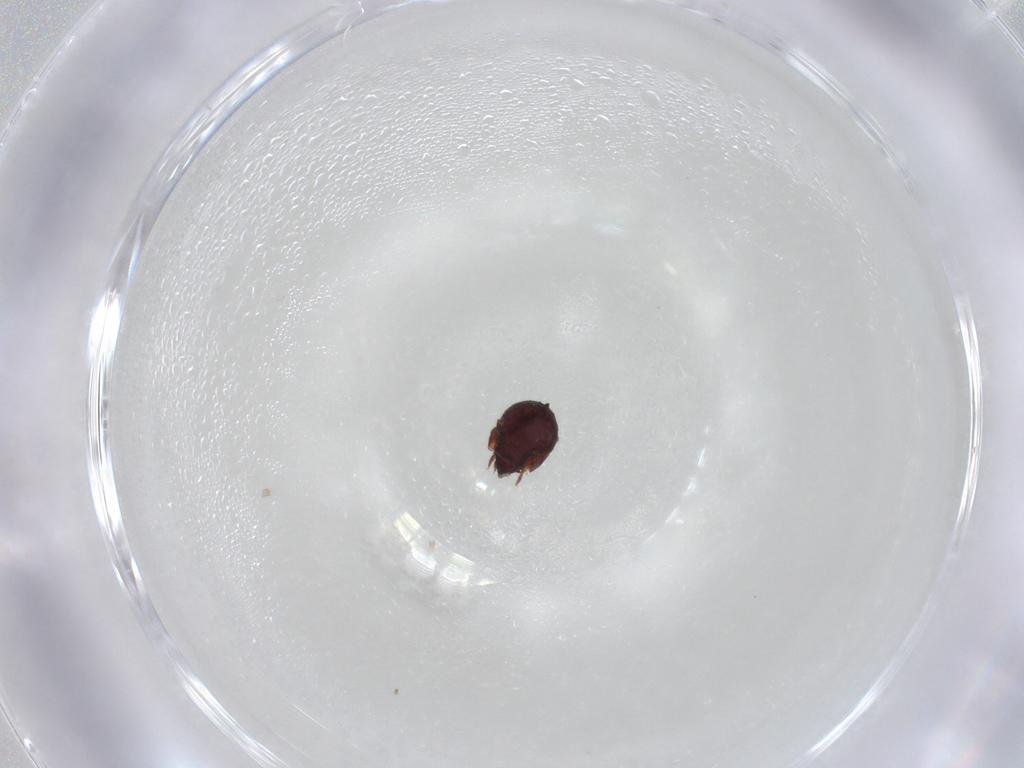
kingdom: Animalia
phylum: Arthropoda
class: Arachnida
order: Sarcoptiformes
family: Humerobatidae
